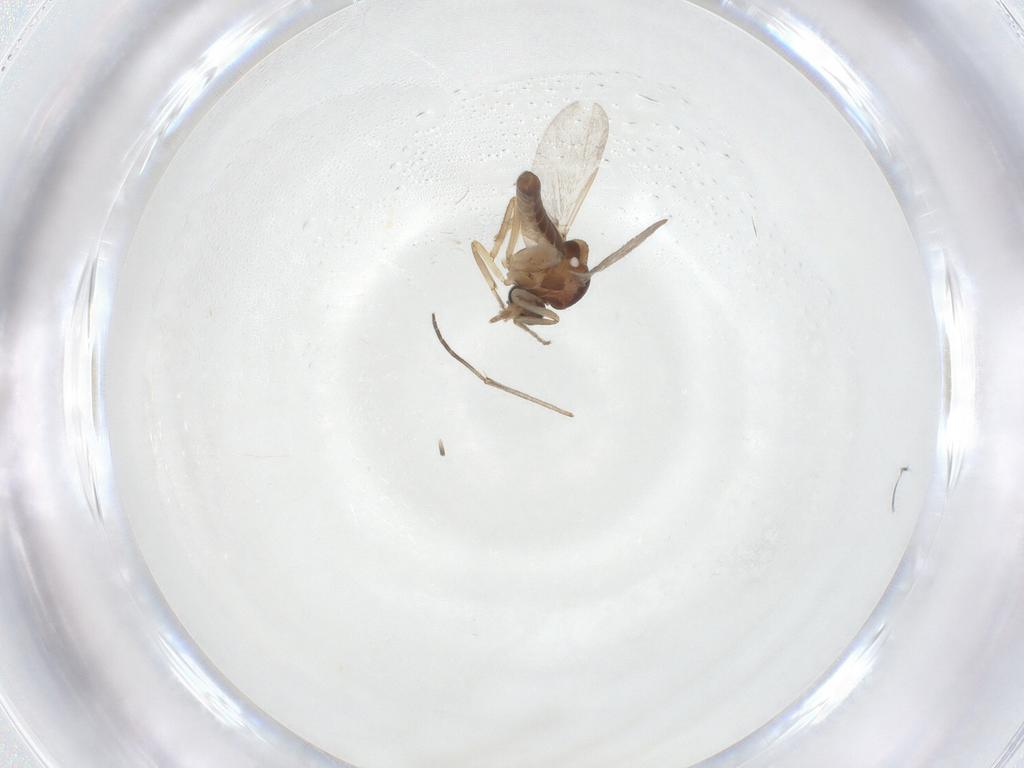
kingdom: Animalia
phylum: Arthropoda
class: Insecta
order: Diptera
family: Ceratopogonidae
